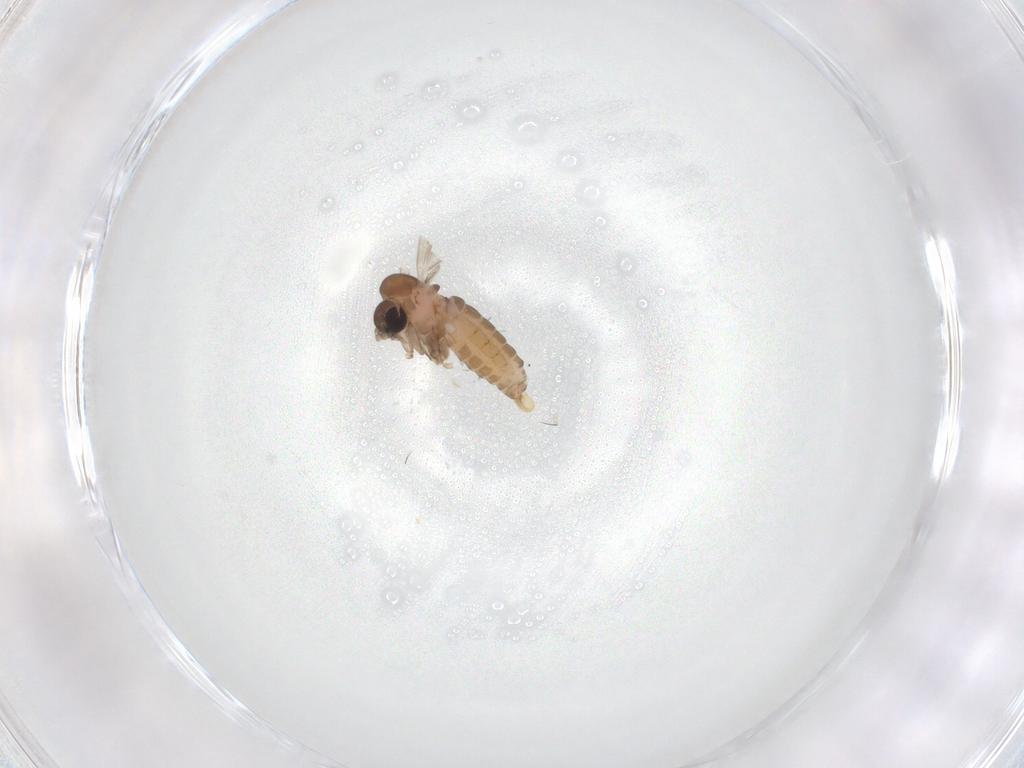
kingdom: Animalia
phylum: Arthropoda
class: Insecta
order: Diptera
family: Psychodidae
